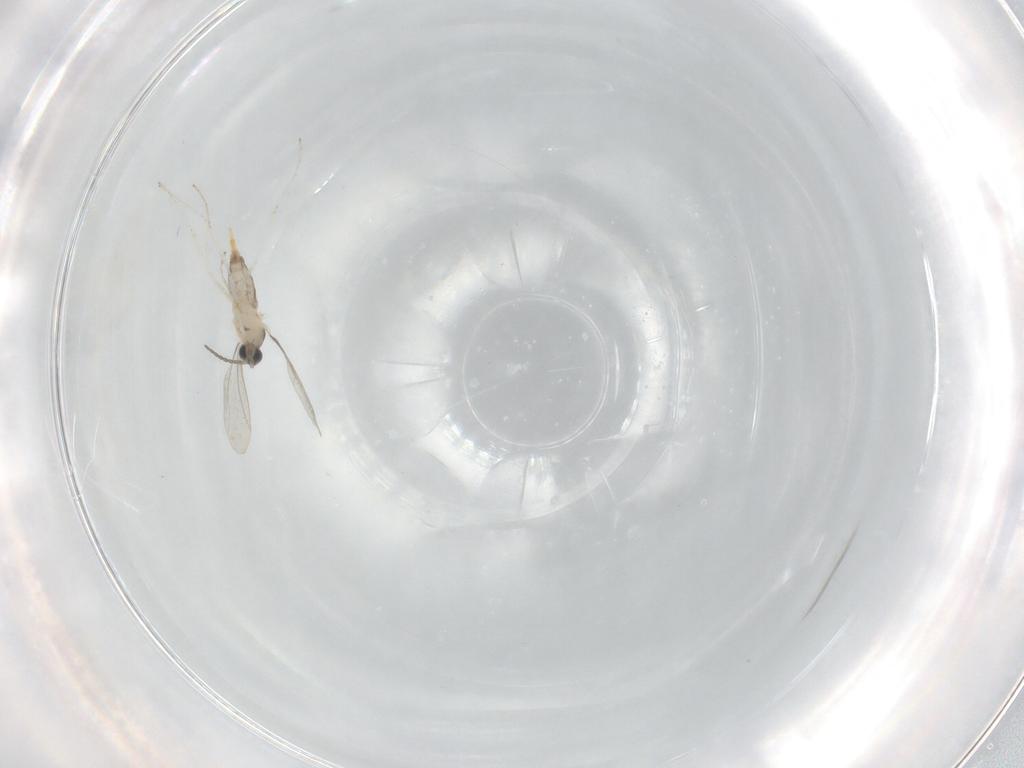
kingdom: Animalia
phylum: Arthropoda
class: Insecta
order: Diptera
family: Cecidomyiidae
